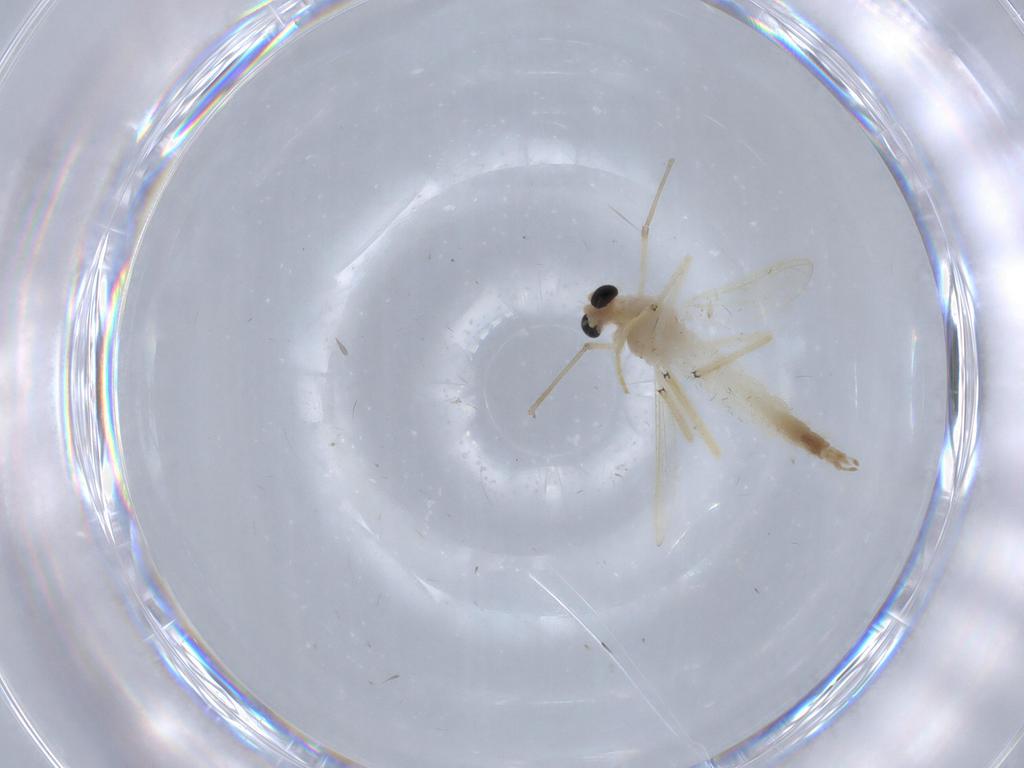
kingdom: Animalia
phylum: Arthropoda
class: Insecta
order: Diptera
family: Chironomidae
